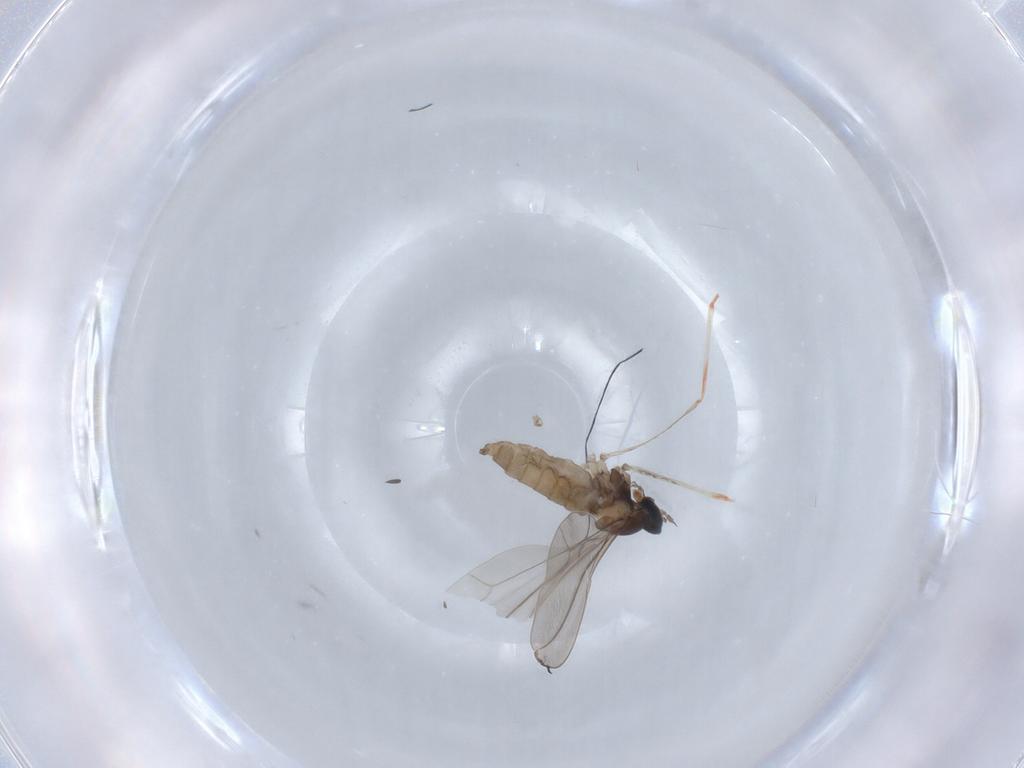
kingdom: Animalia
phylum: Arthropoda
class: Insecta
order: Diptera
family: Cecidomyiidae
